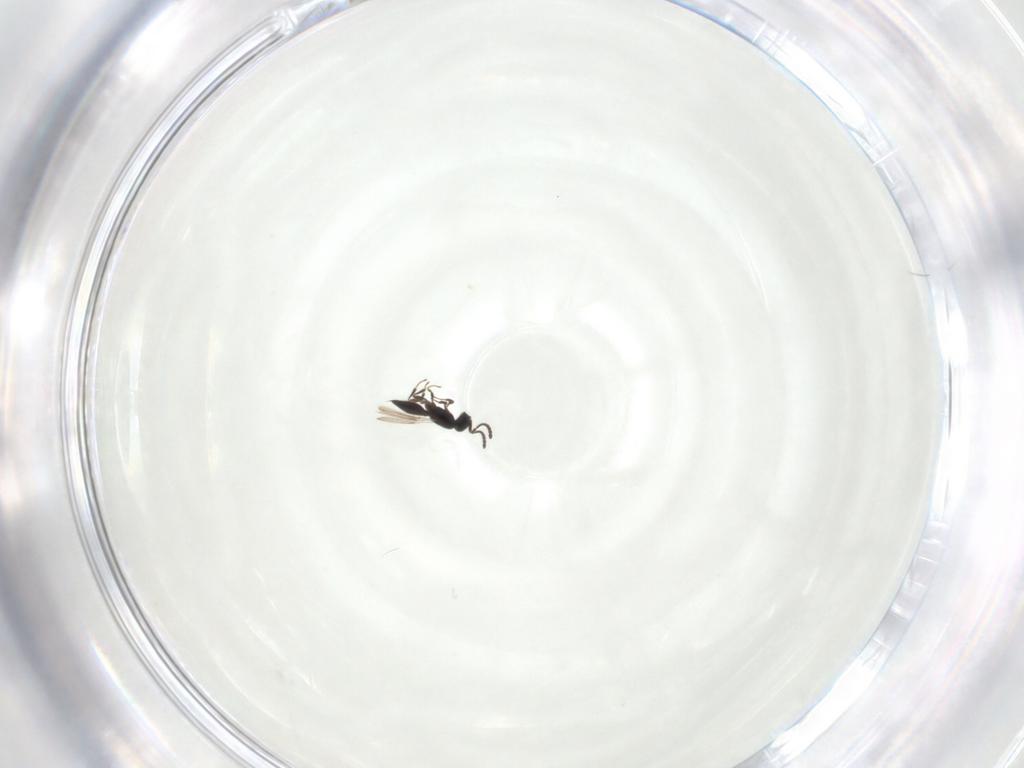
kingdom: Animalia
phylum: Arthropoda
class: Insecta
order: Hymenoptera
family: Scelionidae
